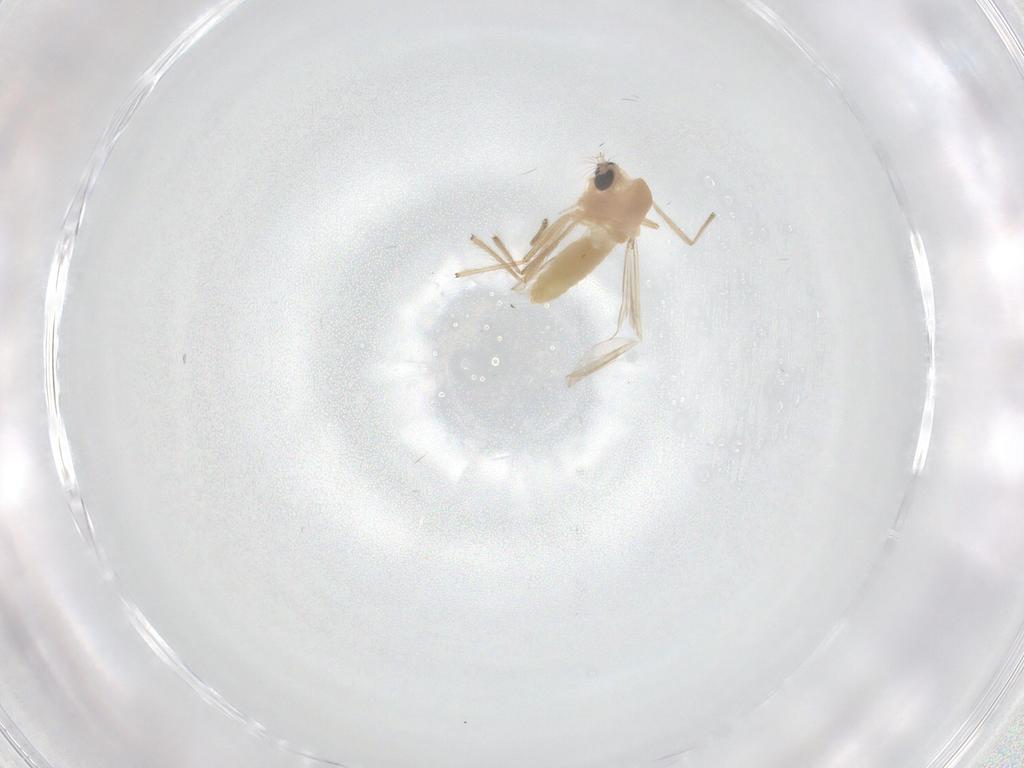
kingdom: Animalia
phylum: Arthropoda
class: Insecta
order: Diptera
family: Chironomidae
